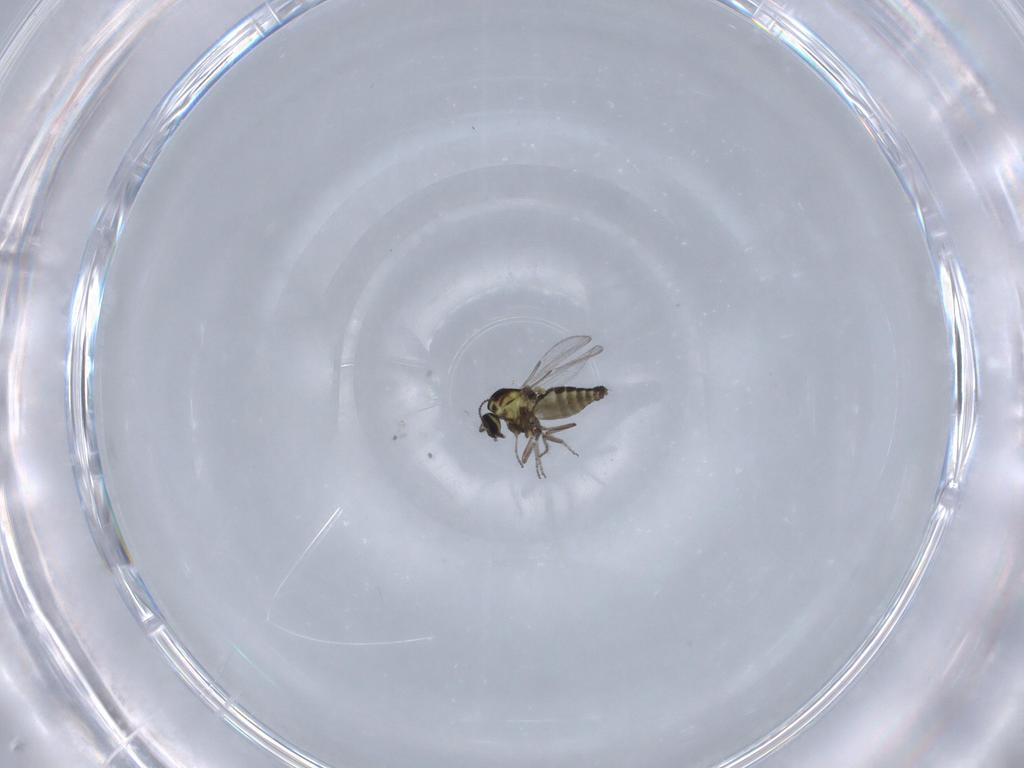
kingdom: Animalia
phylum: Arthropoda
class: Insecta
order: Diptera
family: Ceratopogonidae
